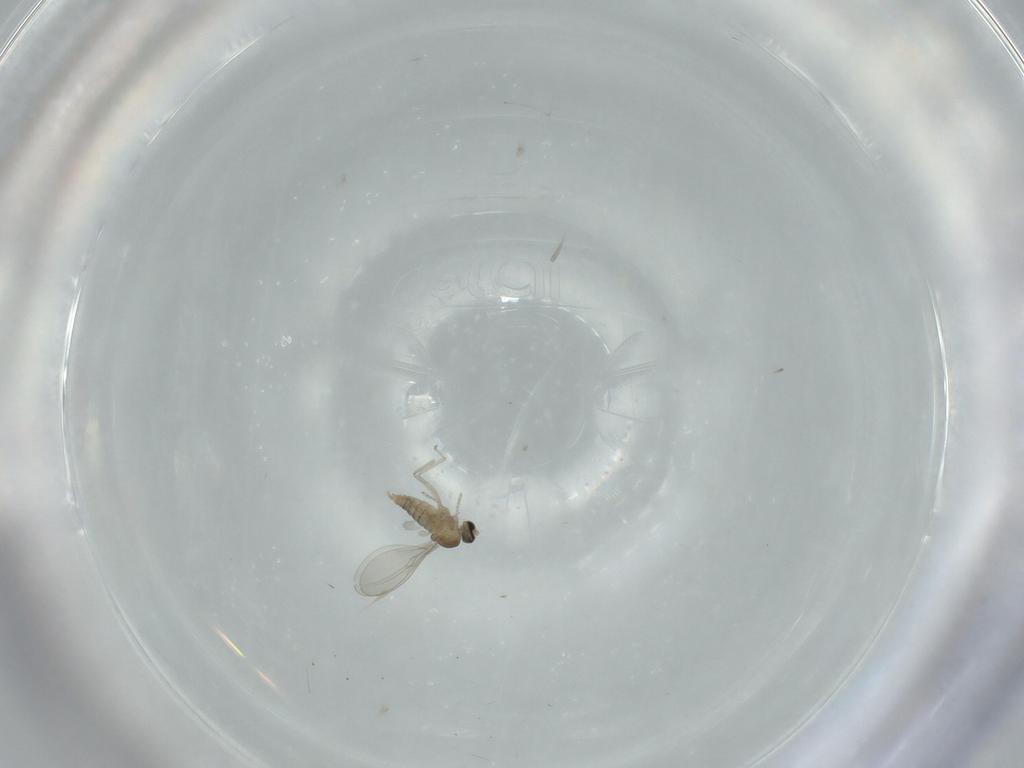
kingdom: Animalia
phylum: Arthropoda
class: Insecta
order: Diptera
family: Cecidomyiidae
